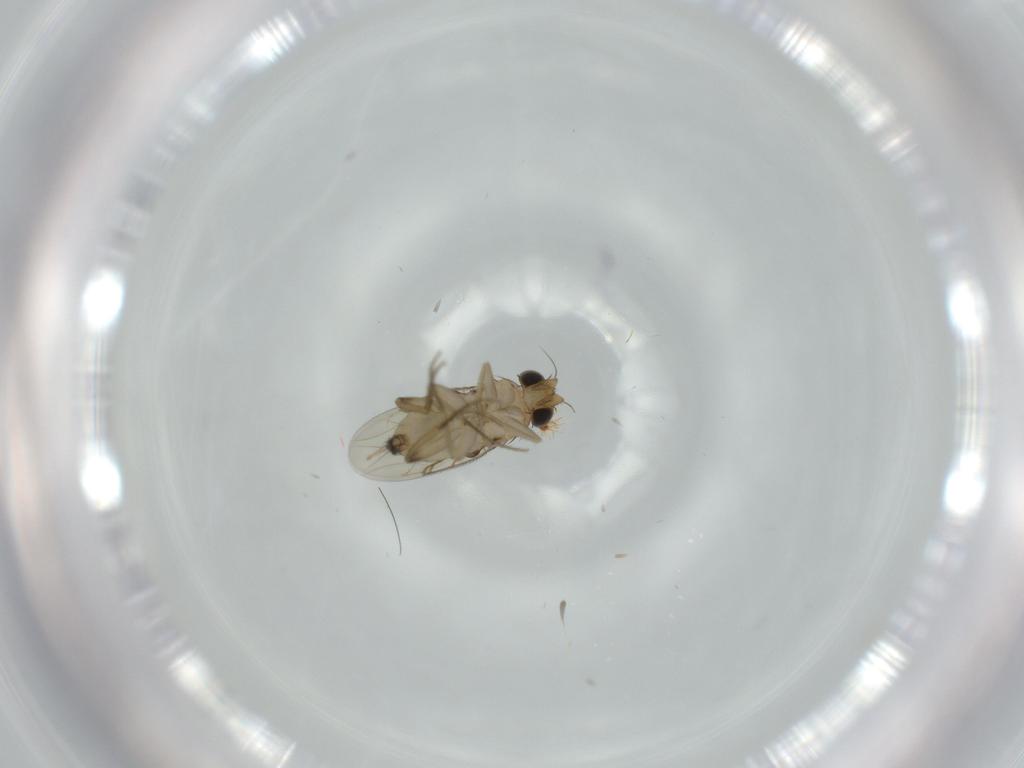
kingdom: Animalia
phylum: Arthropoda
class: Insecta
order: Diptera
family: Phoridae
